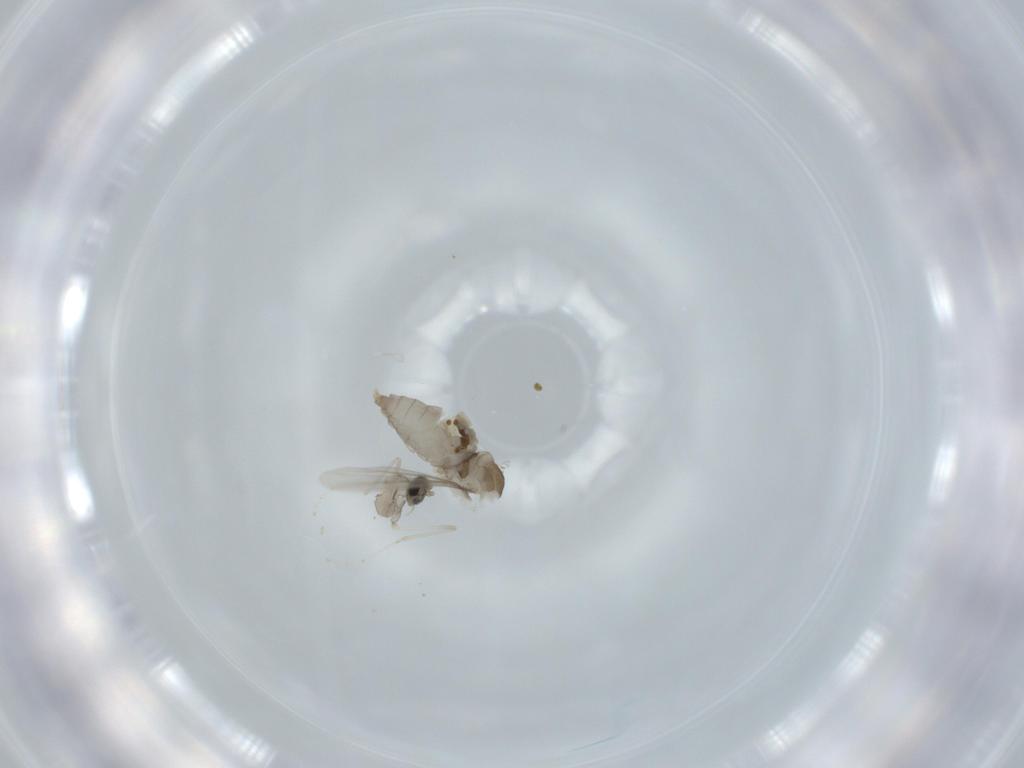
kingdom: Animalia
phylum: Arthropoda
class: Insecta
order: Diptera
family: Cecidomyiidae
